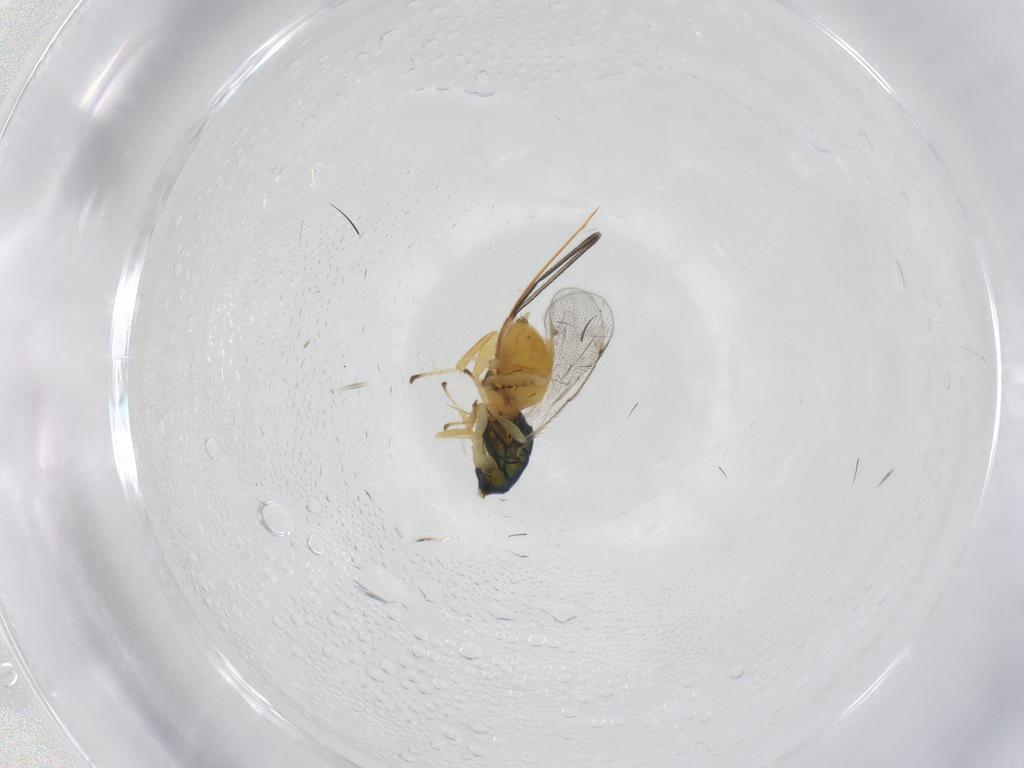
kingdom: Animalia
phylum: Arthropoda
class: Insecta
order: Hymenoptera
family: Torymidae
